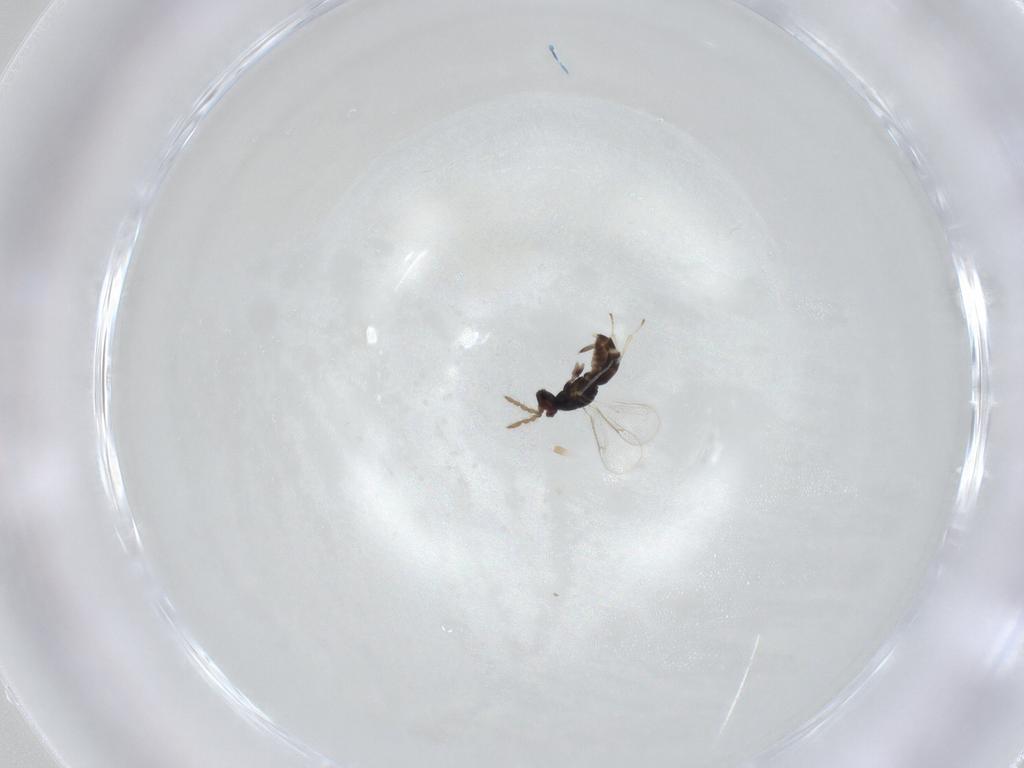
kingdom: Animalia
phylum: Arthropoda
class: Insecta
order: Hymenoptera
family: Eulophidae
